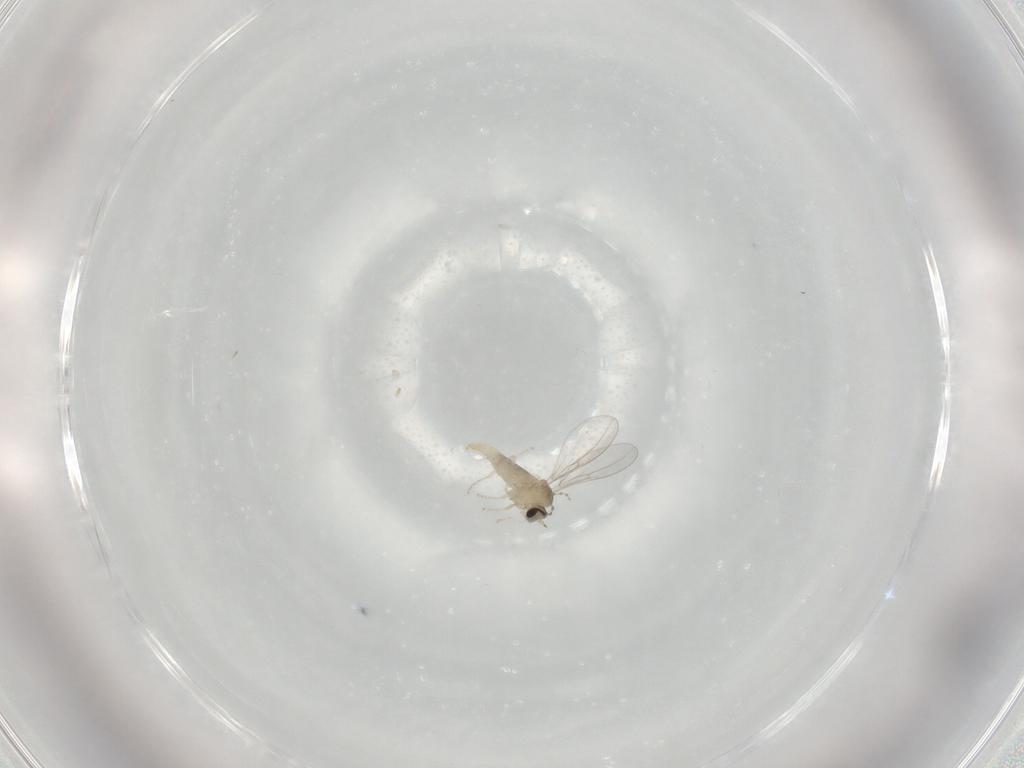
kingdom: Animalia
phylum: Arthropoda
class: Insecta
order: Diptera
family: Cecidomyiidae
